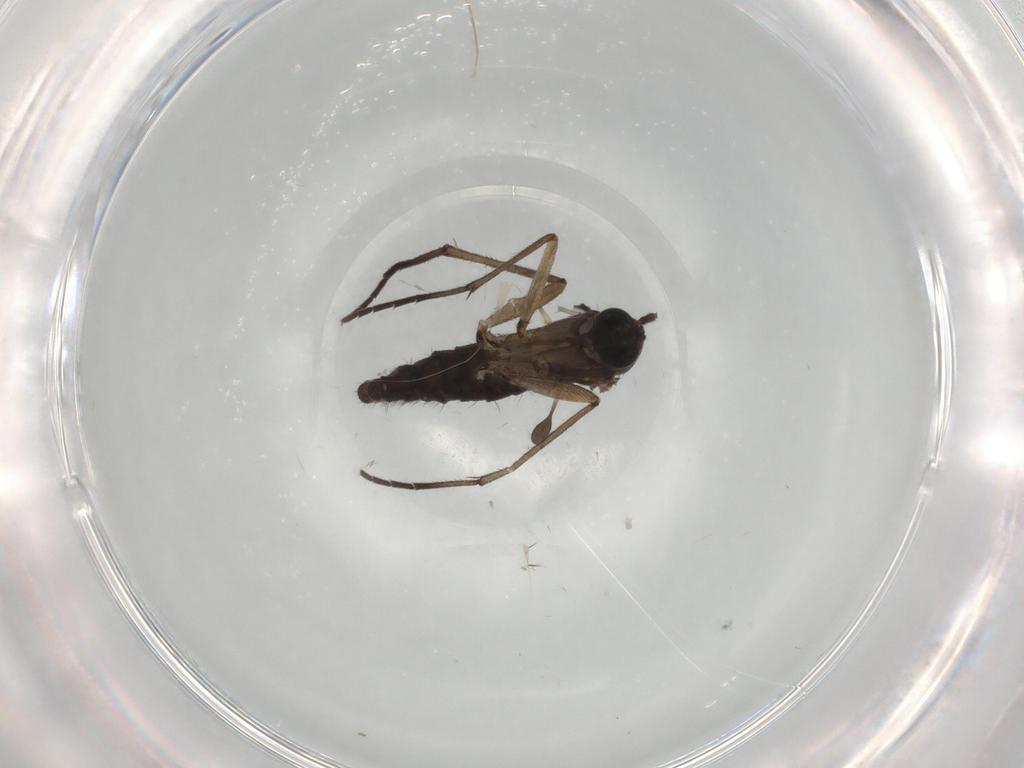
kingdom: Animalia
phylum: Arthropoda
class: Insecta
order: Diptera
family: Sciaridae
